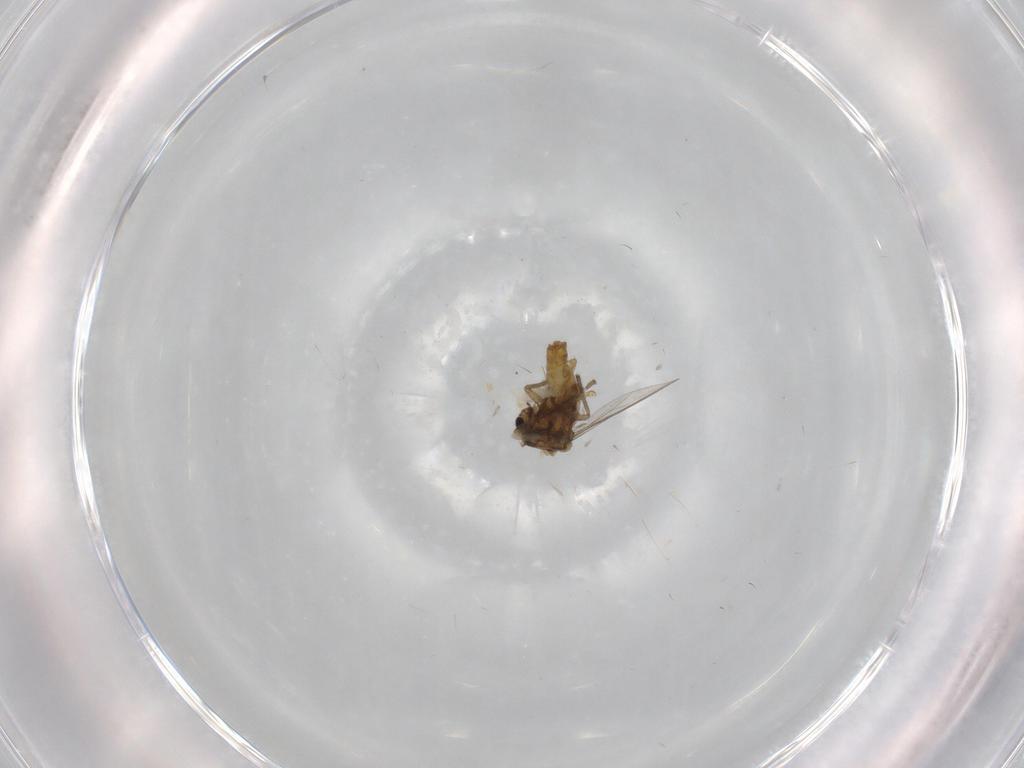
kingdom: Animalia
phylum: Arthropoda
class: Insecta
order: Diptera
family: Chironomidae
